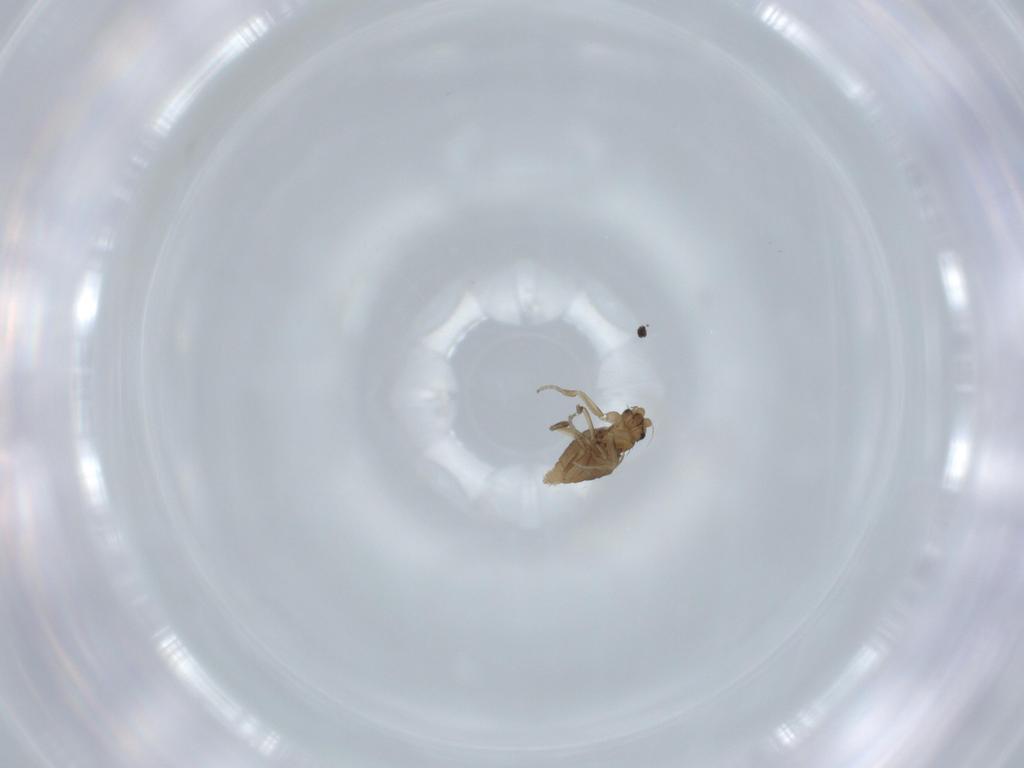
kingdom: Animalia
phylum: Arthropoda
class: Insecta
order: Diptera
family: Phoridae
